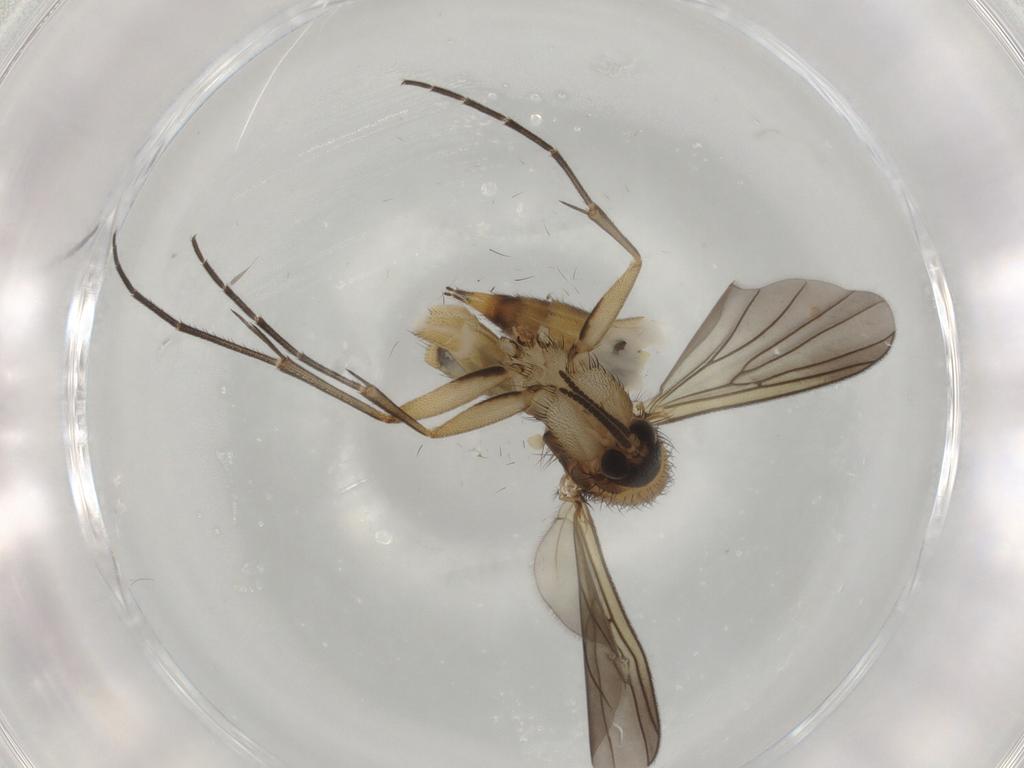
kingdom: Animalia
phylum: Arthropoda
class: Insecta
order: Diptera
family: Mycetophilidae
